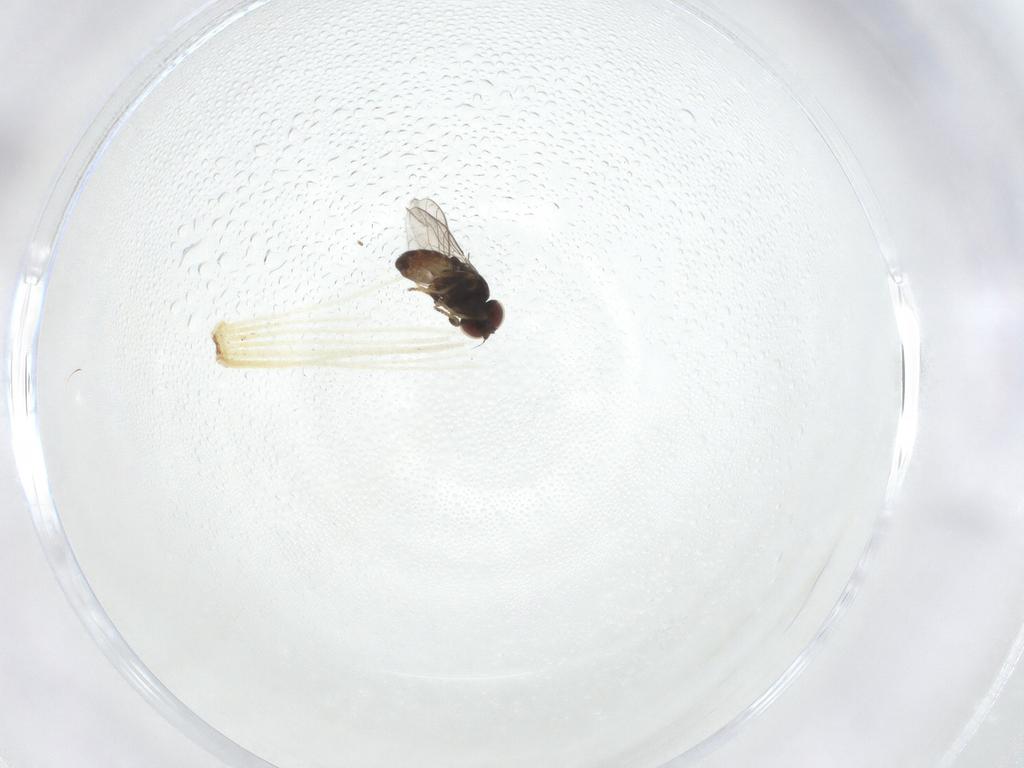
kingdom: Animalia
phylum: Arthropoda
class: Insecta
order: Diptera
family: Chloropidae
